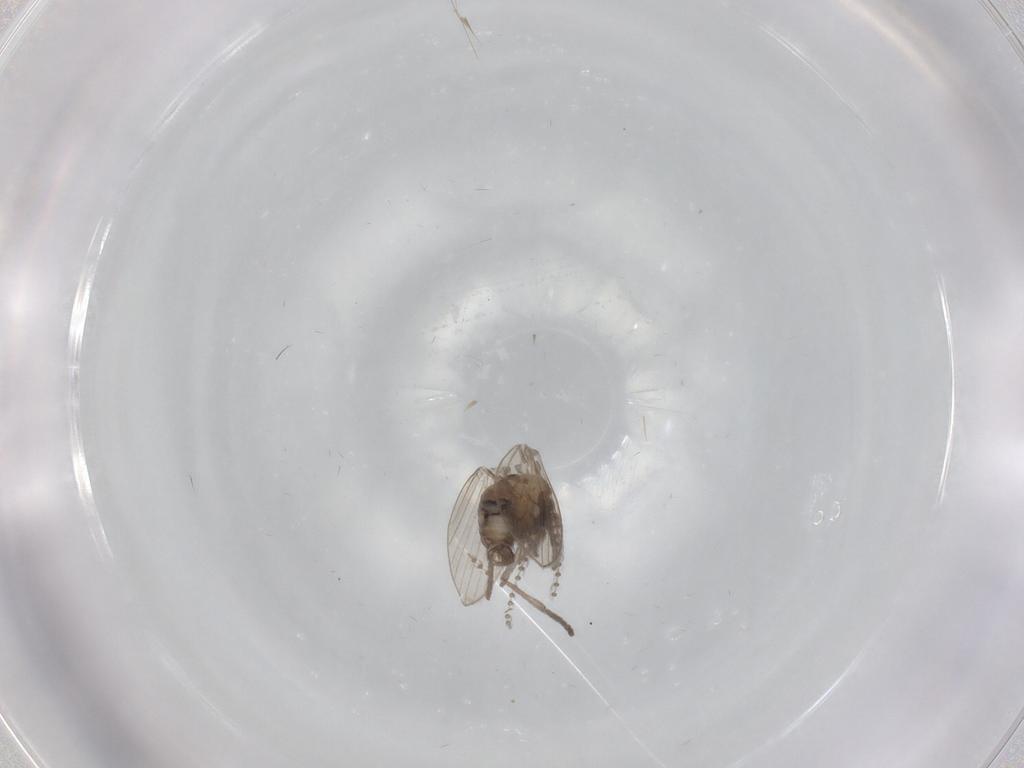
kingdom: Animalia
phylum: Arthropoda
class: Insecta
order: Diptera
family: Psychodidae
